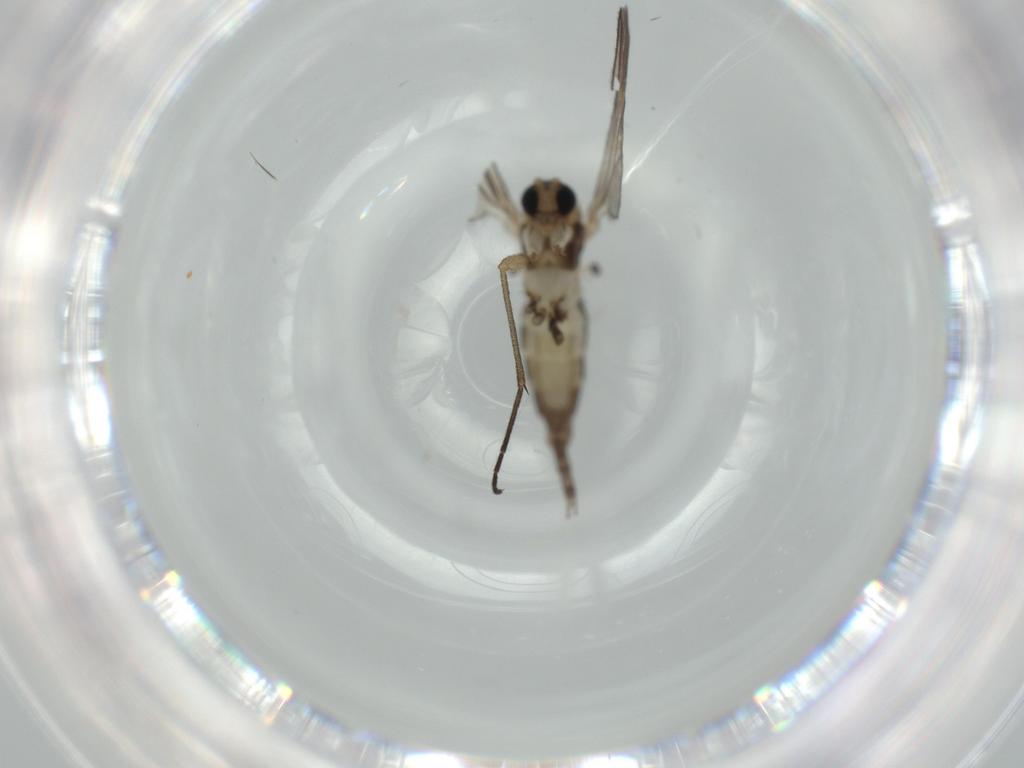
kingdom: Animalia
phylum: Arthropoda
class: Insecta
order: Diptera
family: Sciaridae
